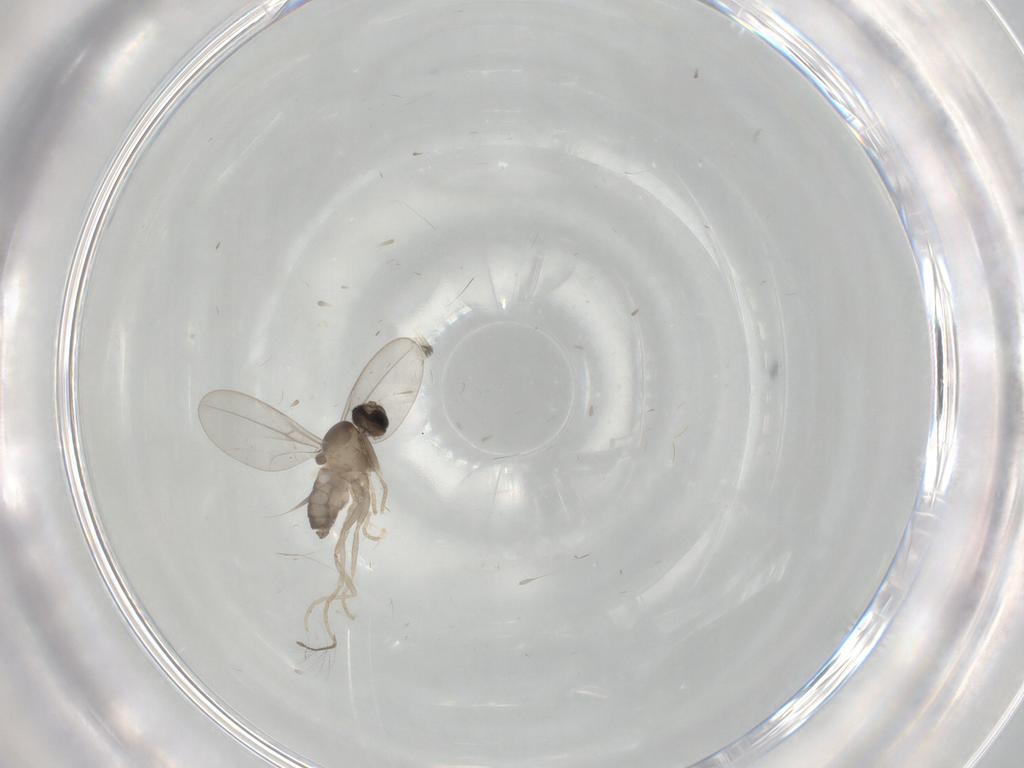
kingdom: Animalia
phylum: Arthropoda
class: Insecta
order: Diptera
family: Cecidomyiidae
